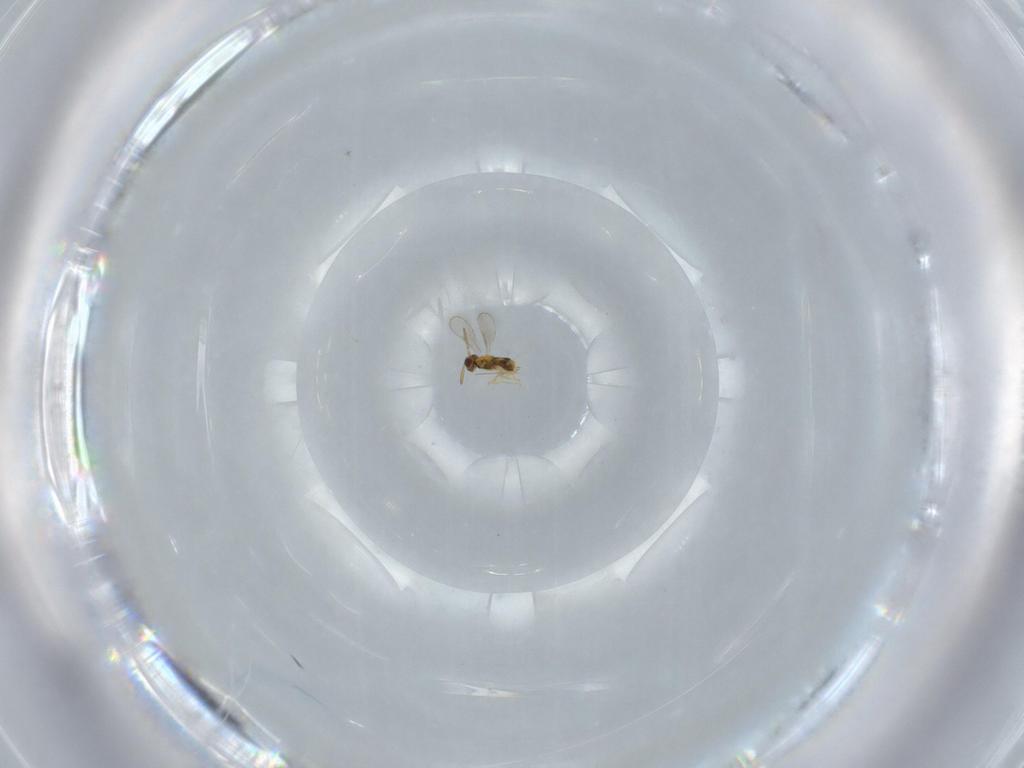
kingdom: Animalia
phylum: Arthropoda
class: Insecta
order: Hymenoptera
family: Aphelinidae
